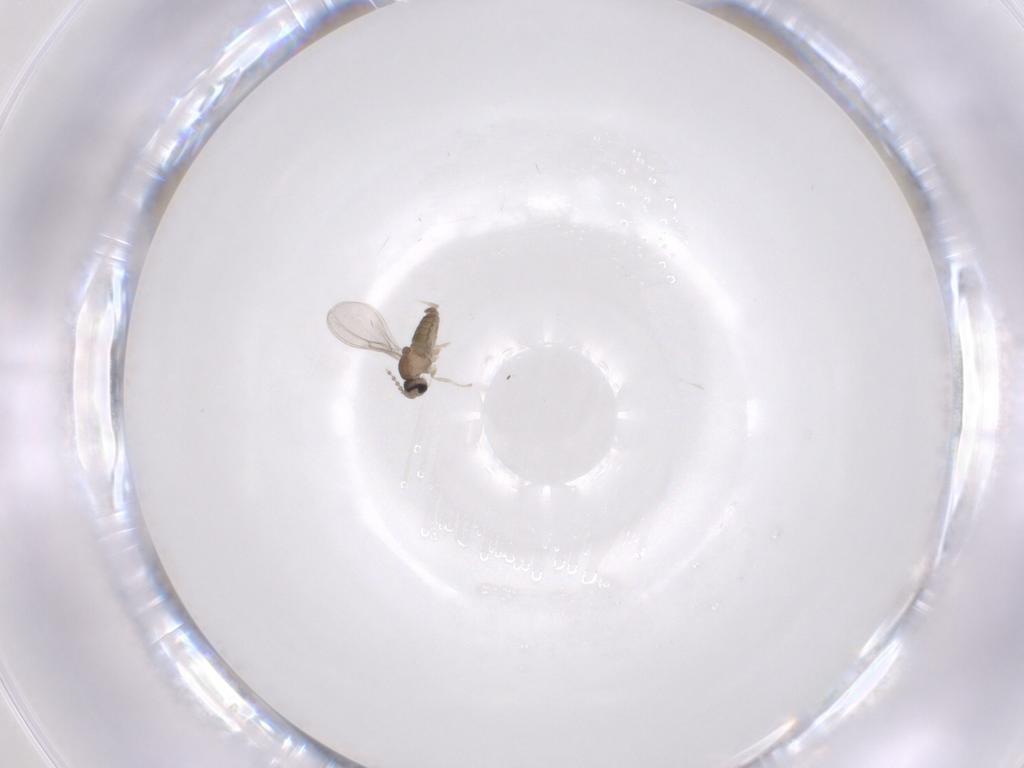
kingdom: Animalia
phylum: Arthropoda
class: Insecta
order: Diptera
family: Cecidomyiidae
